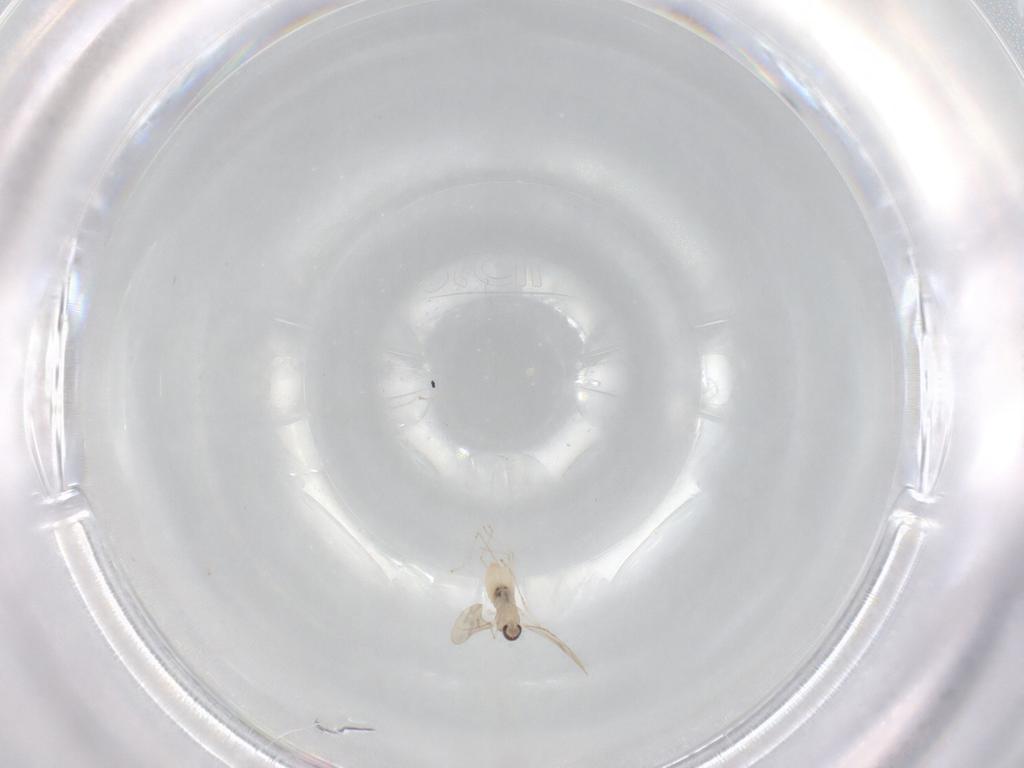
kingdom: Animalia
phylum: Arthropoda
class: Insecta
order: Diptera
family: Cecidomyiidae
